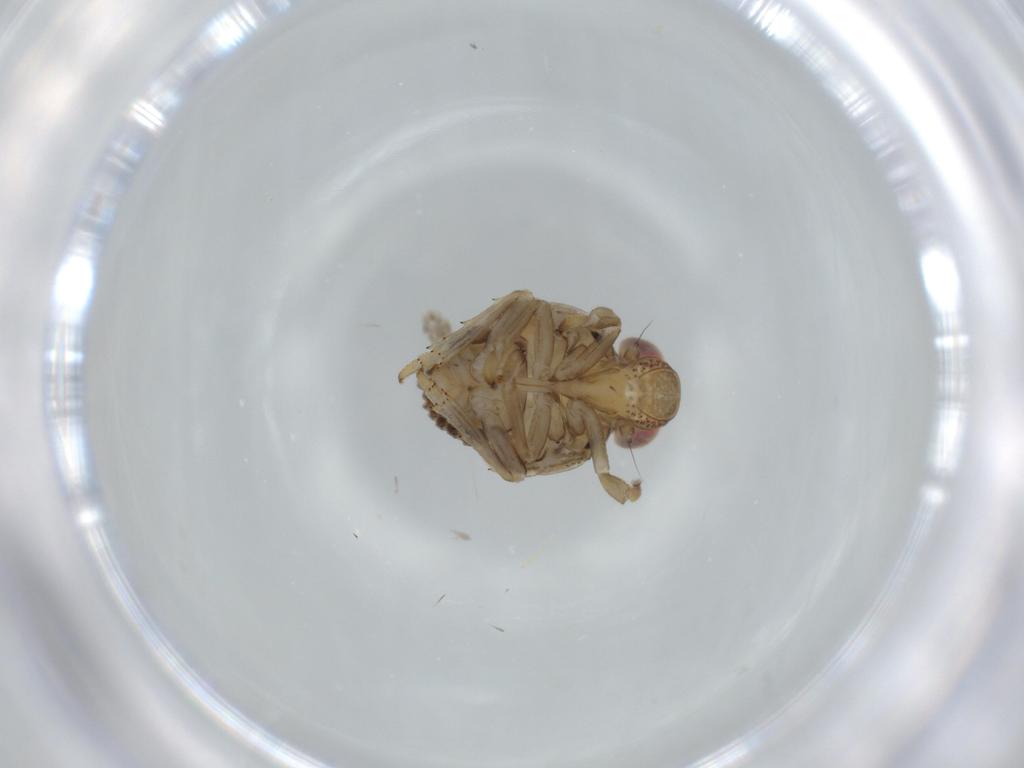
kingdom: Animalia
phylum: Arthropoda
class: Insecta
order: Hemiptera
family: Issidae
